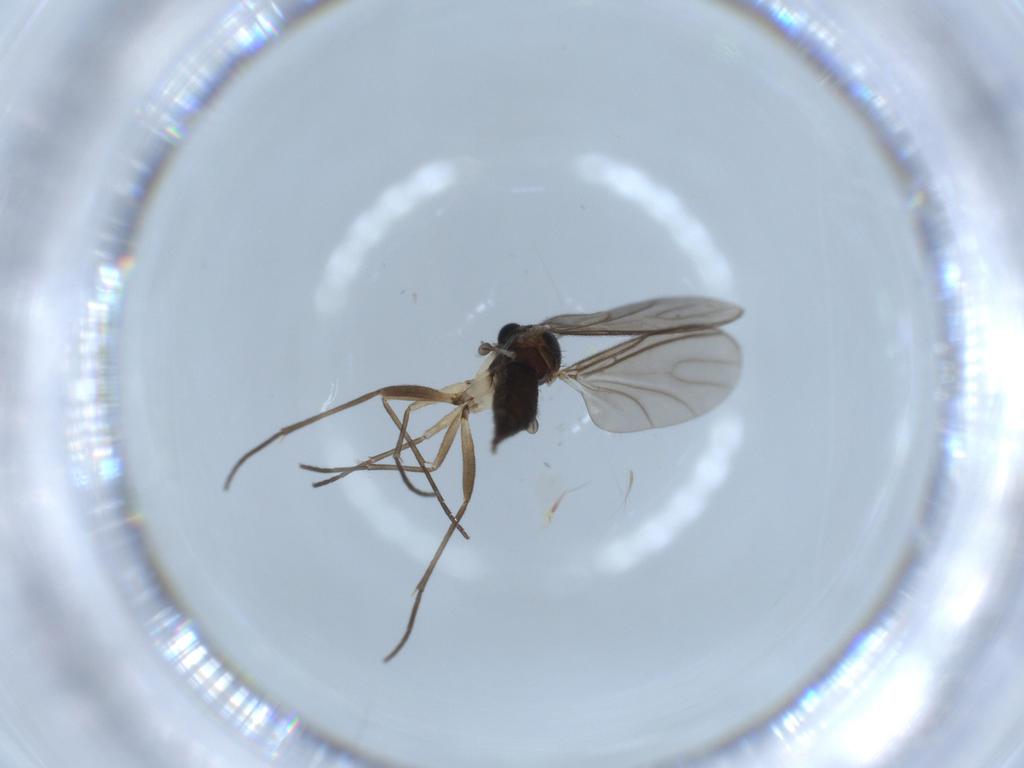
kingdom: Animalia
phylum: Arthropoda
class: Insecta
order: Diptera
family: Sciaridae
